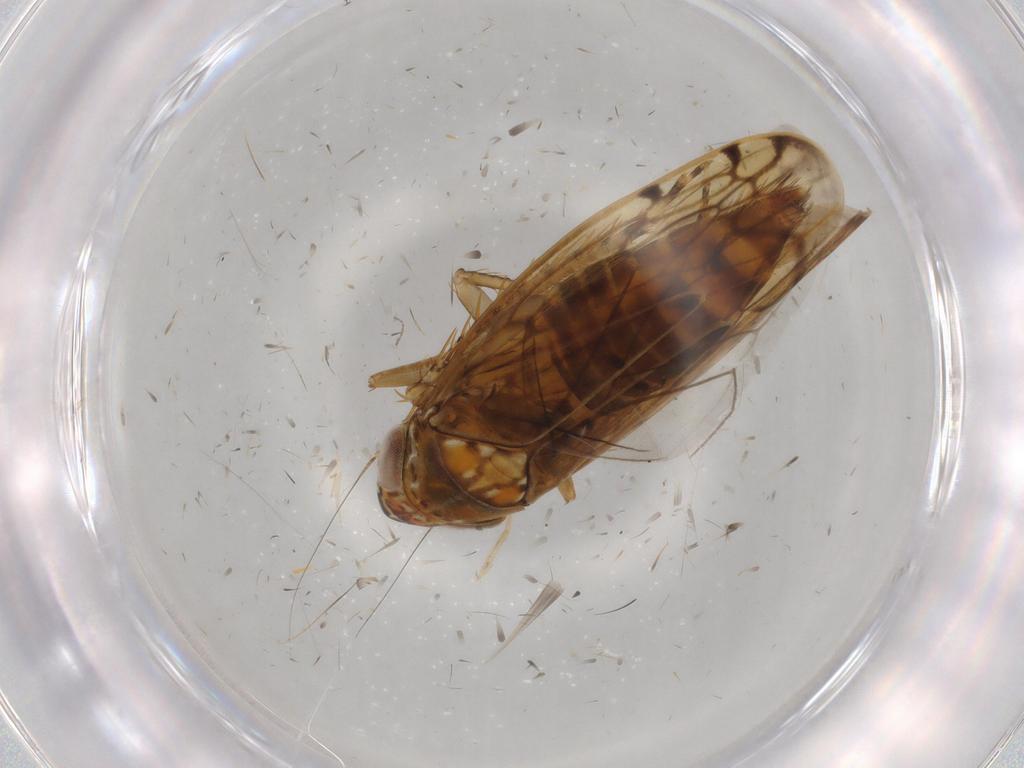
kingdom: Animalia
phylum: Arthropoda
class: Insecta
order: Hemiptera
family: Cicadellidae
